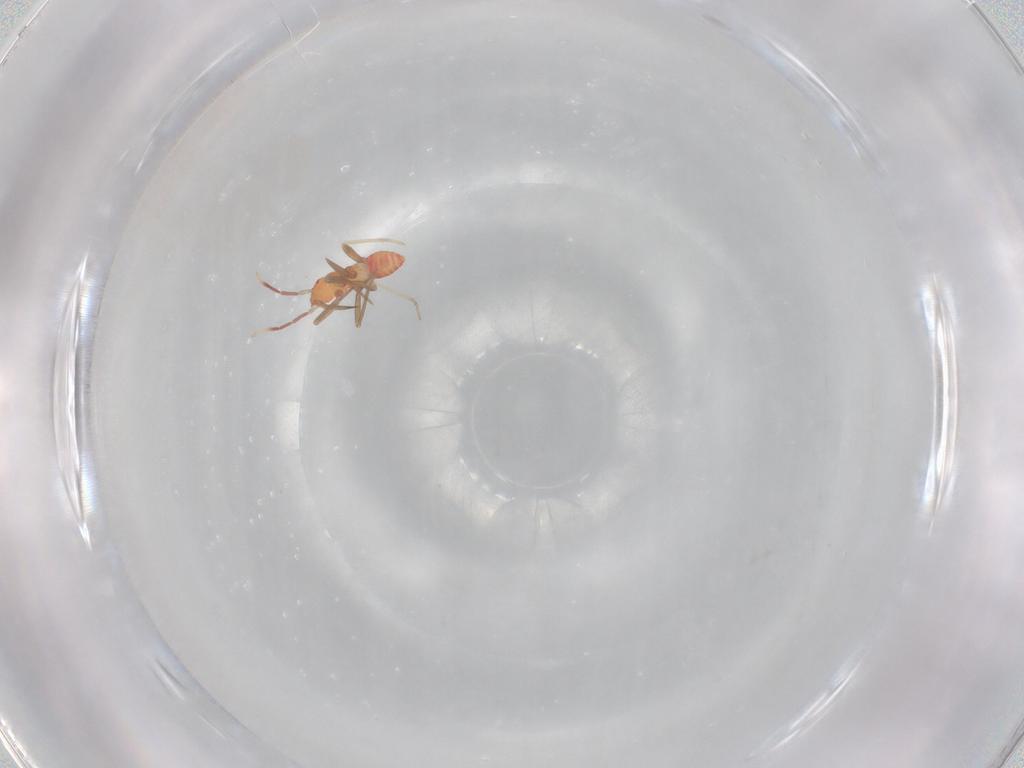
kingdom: Animalia
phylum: Arthropoda
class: Insecta
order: Hemiptera
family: Miridae
